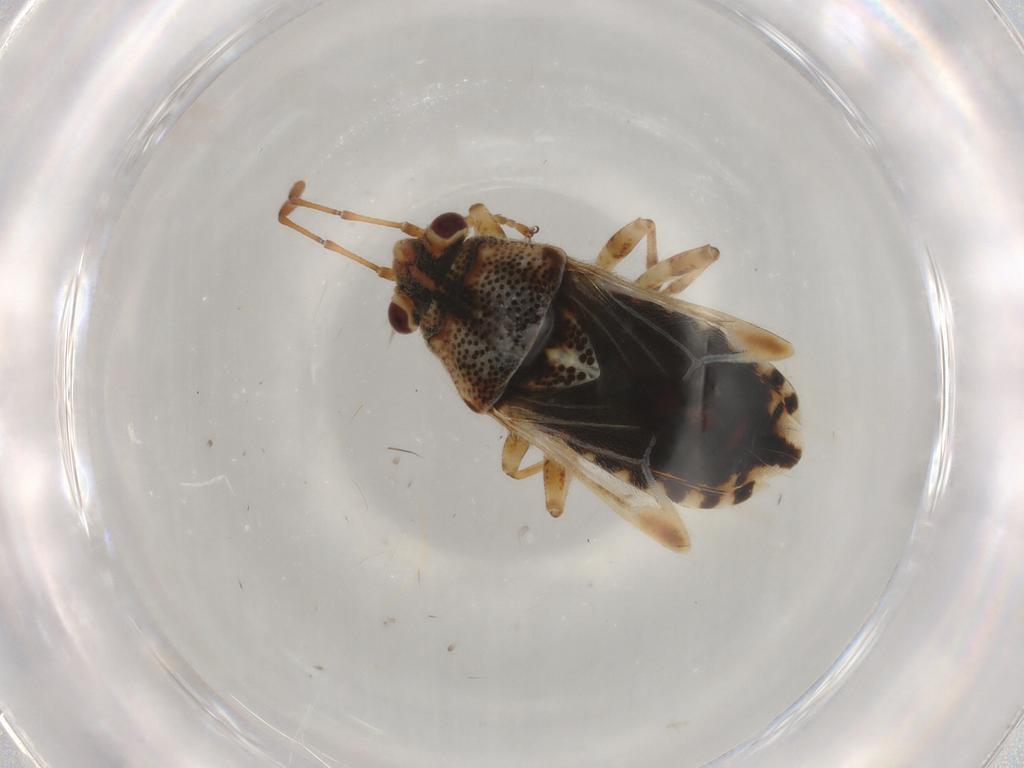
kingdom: Animalia
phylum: Arthropoda
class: Insecta
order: Hemiptera
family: Lygaeidae
